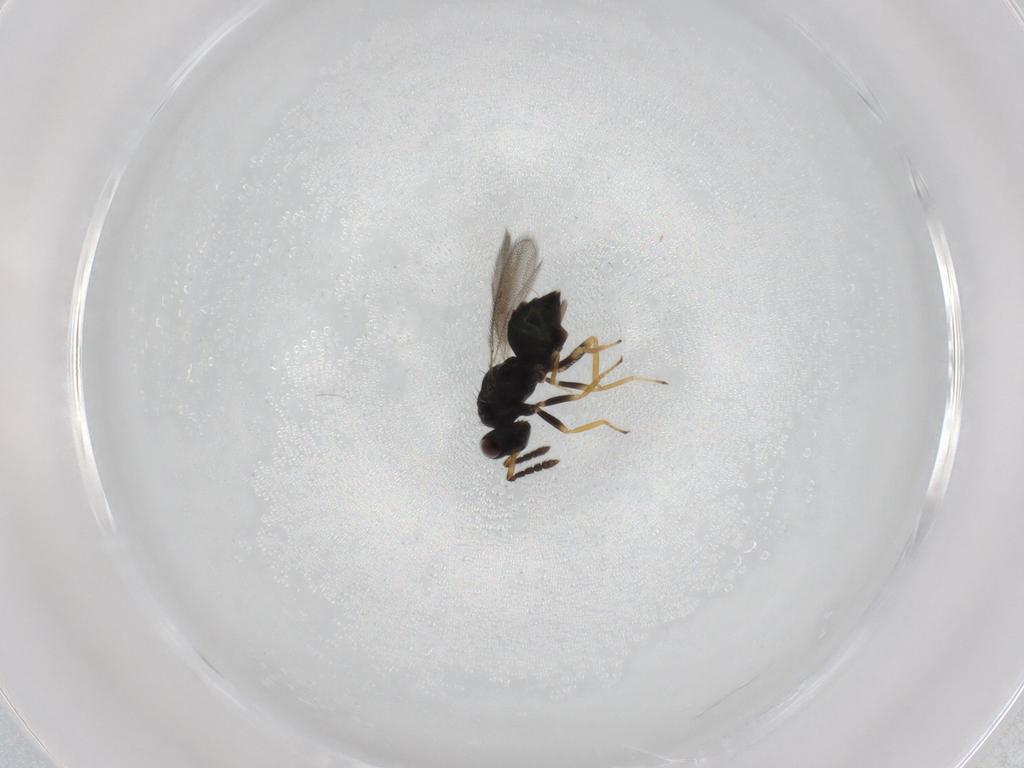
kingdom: Animalia
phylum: Arthropoda
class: Insecta
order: Hymenoptera
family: Eulophidae
